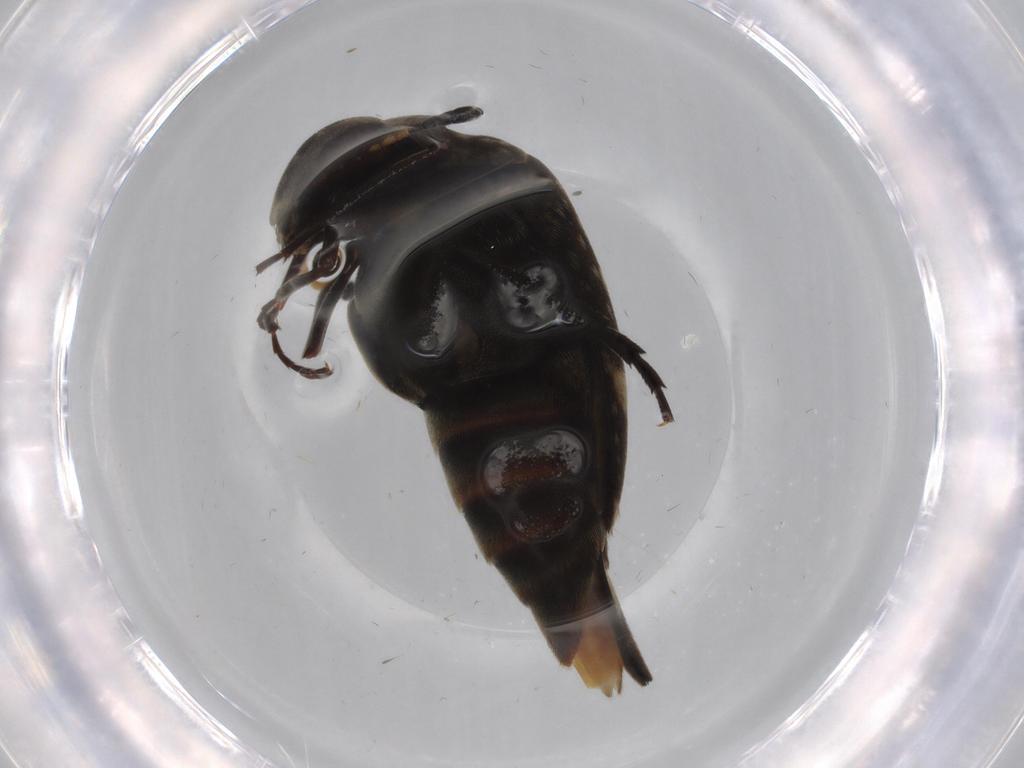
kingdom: Animalia
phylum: Arthropoda
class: Insecta
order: Coleoptera
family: Mordellidae
